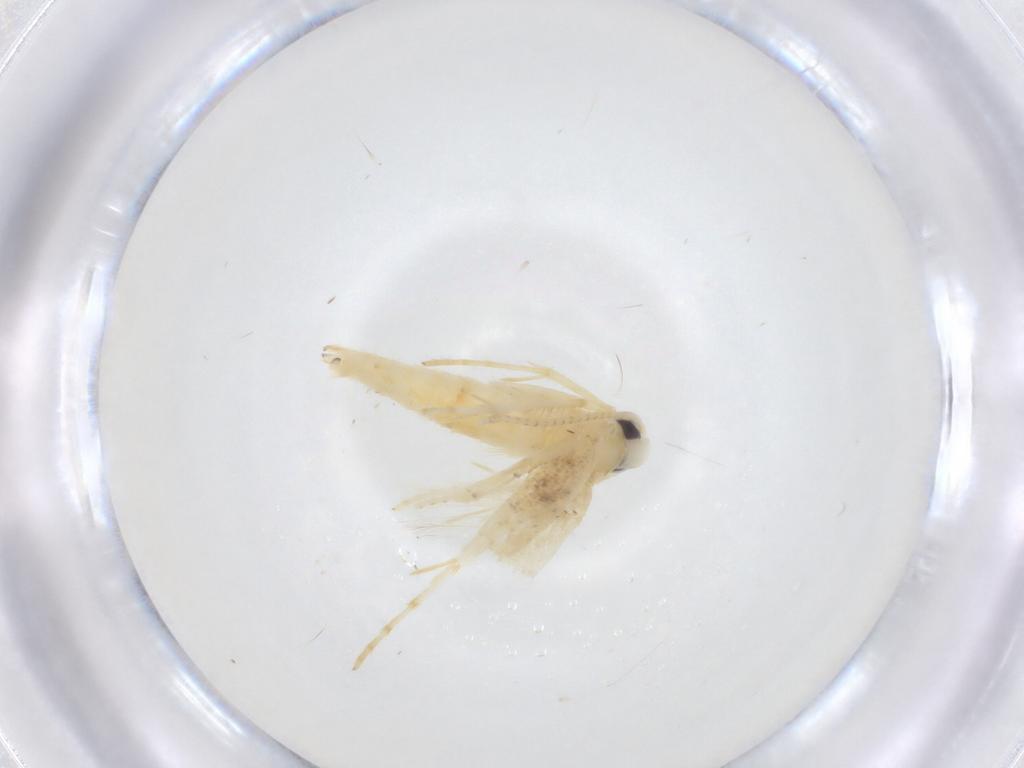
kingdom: Animalia
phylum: Arthropoda
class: Insecta
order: Lepidoptera
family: Oecophoridae
